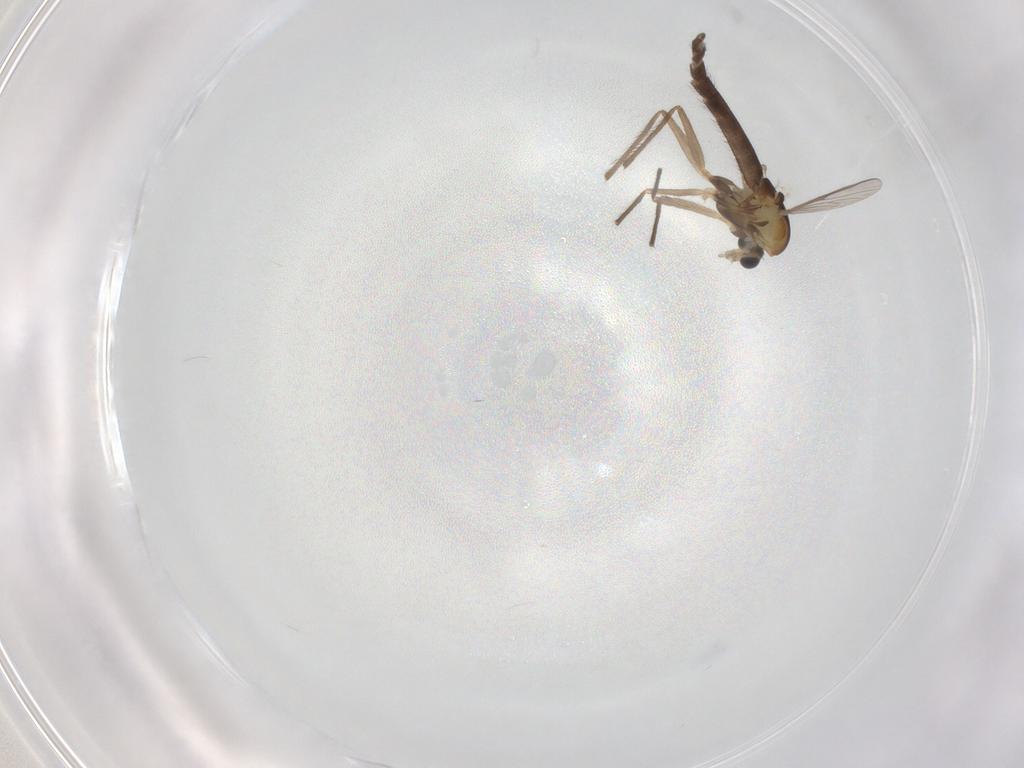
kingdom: Animalia
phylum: Arthropoda
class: Insecta
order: Diptera
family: Chironomidae
